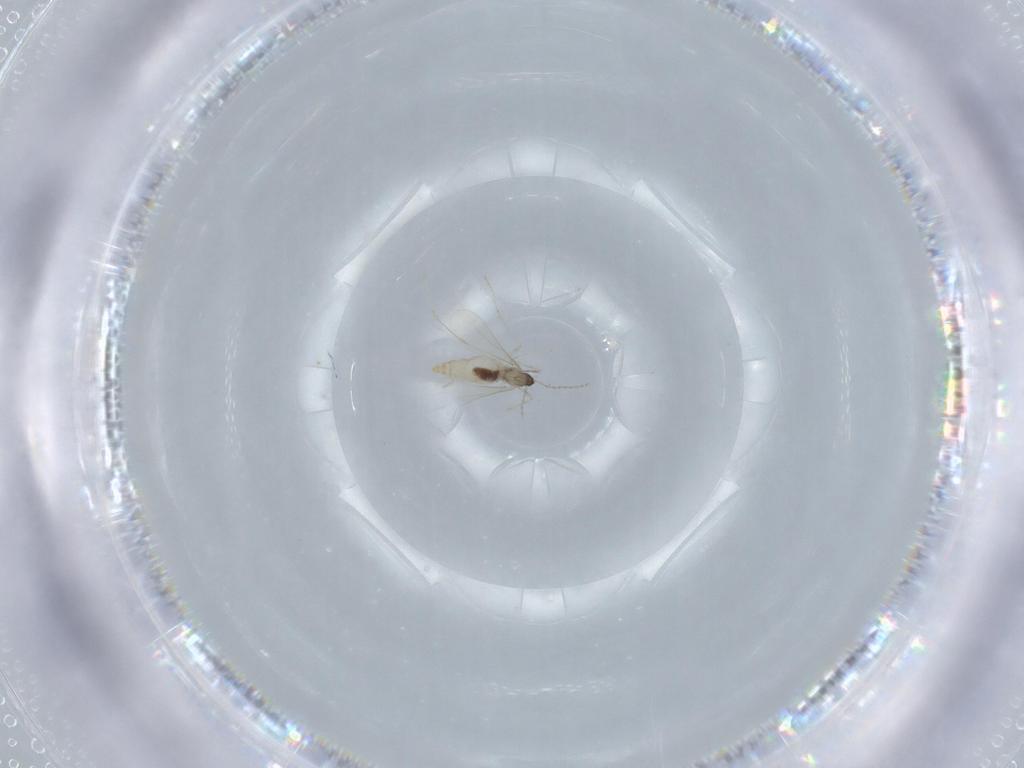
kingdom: Animalia
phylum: Arthropoda
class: Insecta
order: Diptera
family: Cecidomyiidae
